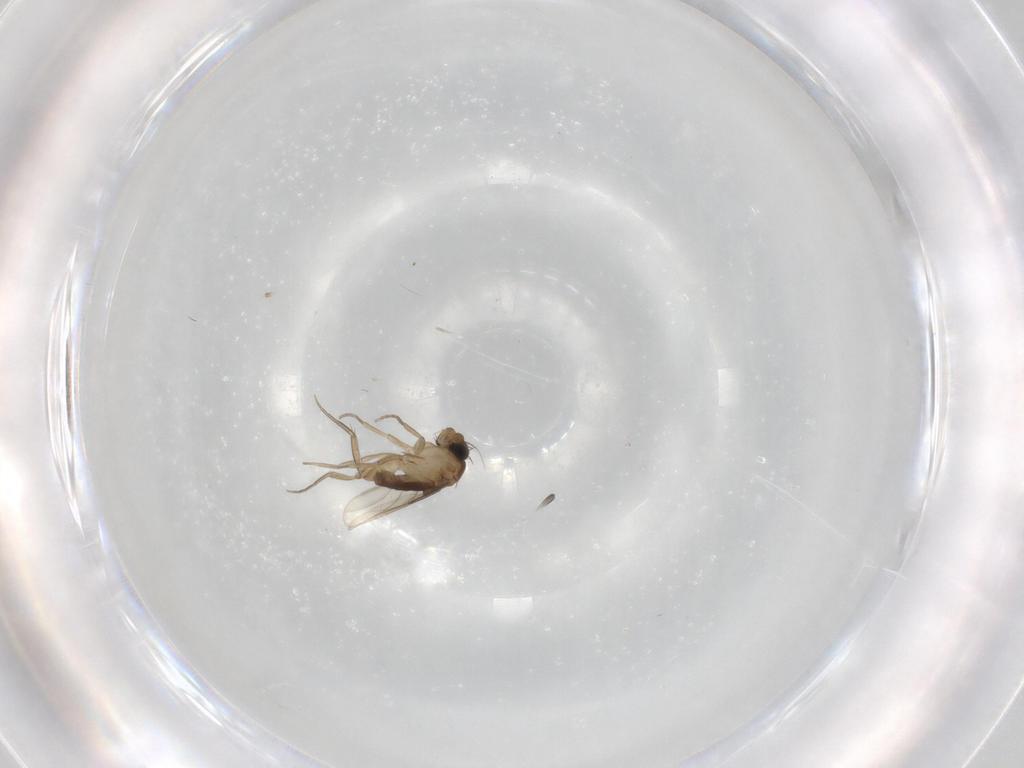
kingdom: Animalia
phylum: Arthropoda
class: Insecta
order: Diptera
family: Phoridae
